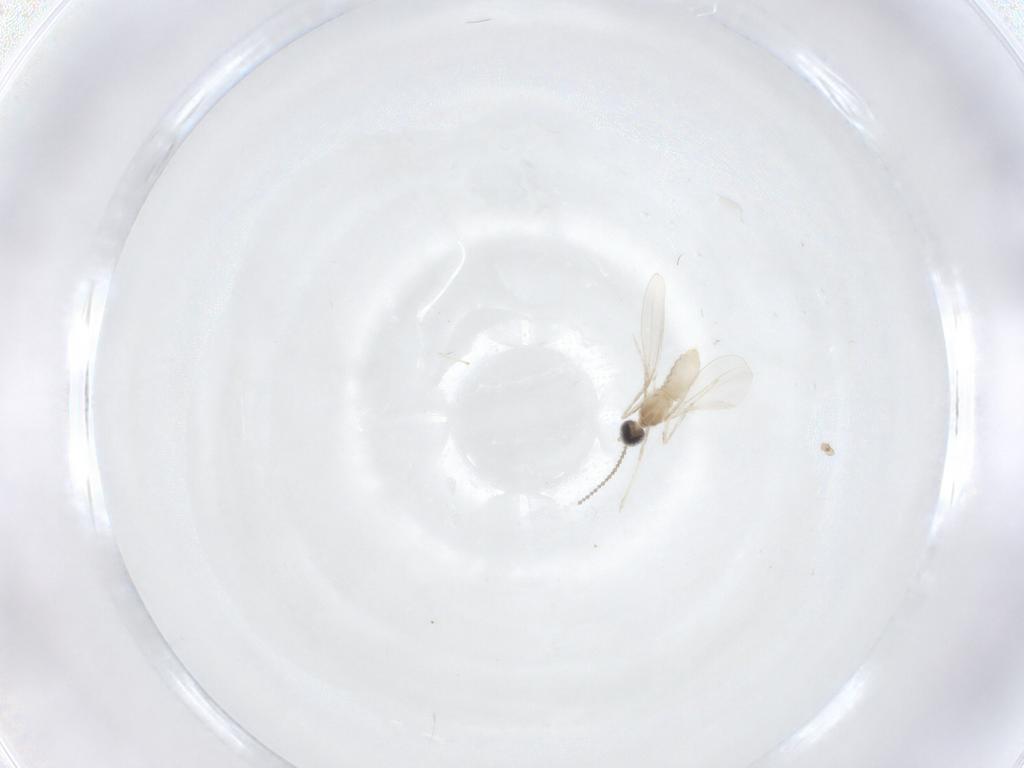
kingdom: Animalia
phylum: Arthropoda
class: Insecta
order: Diptera
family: Cecidomyiidae
